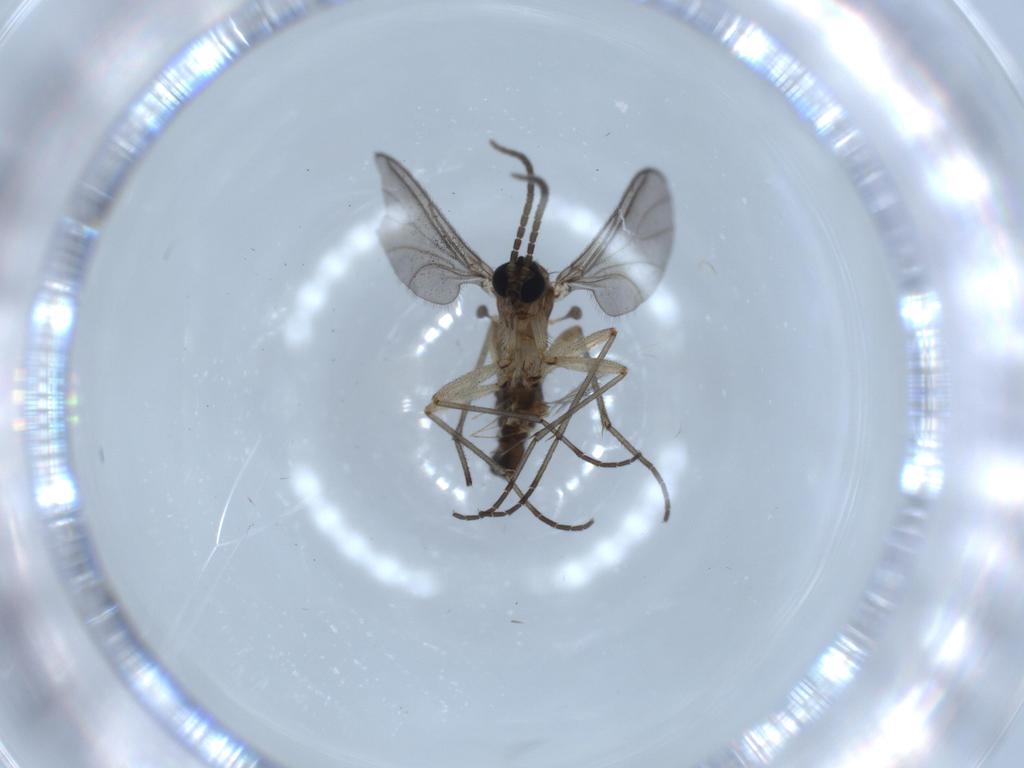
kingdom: Animalia
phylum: Arthropoda
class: Insecta
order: Diptera
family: Sciaridae
